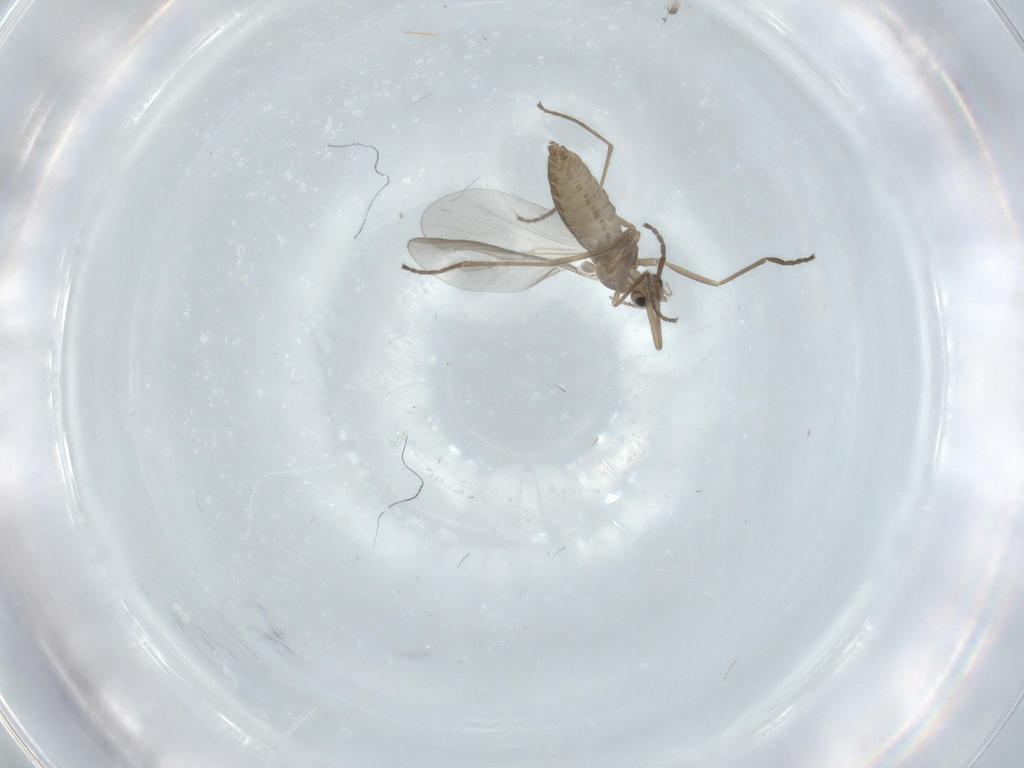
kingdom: Animalia
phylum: Arthropoda
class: Insecta
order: Diptera
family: Cecidomyiidae
